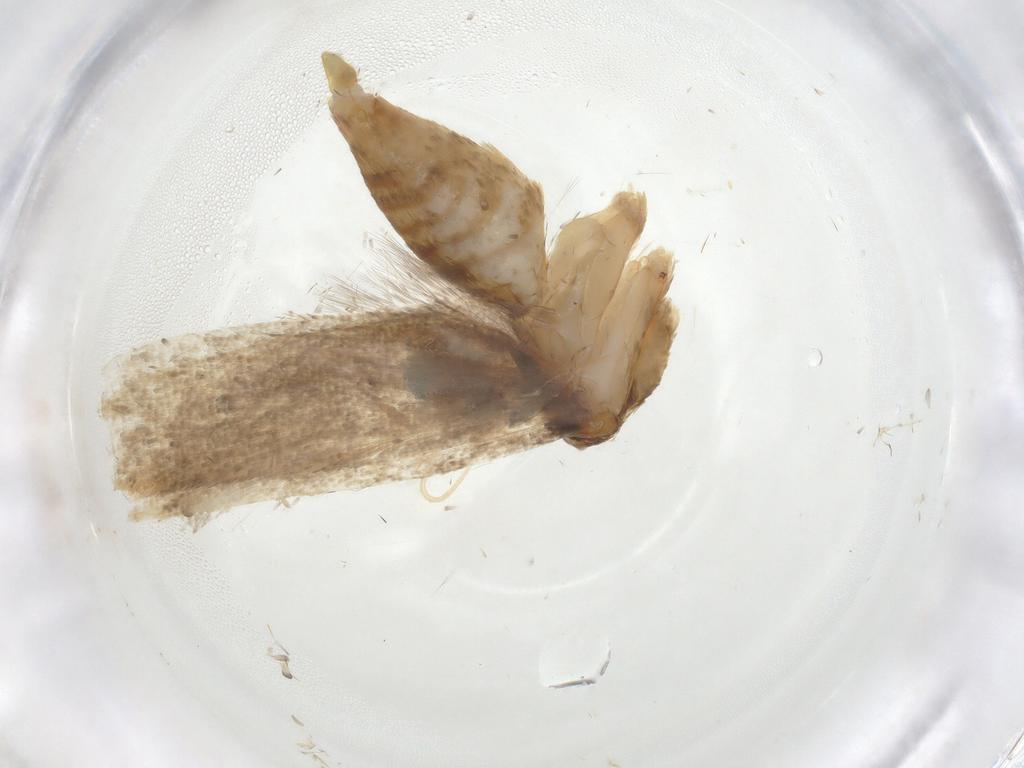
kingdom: Animalia
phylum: Arthropoda
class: Insecta
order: Lepidoptera
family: Oecophoridae
